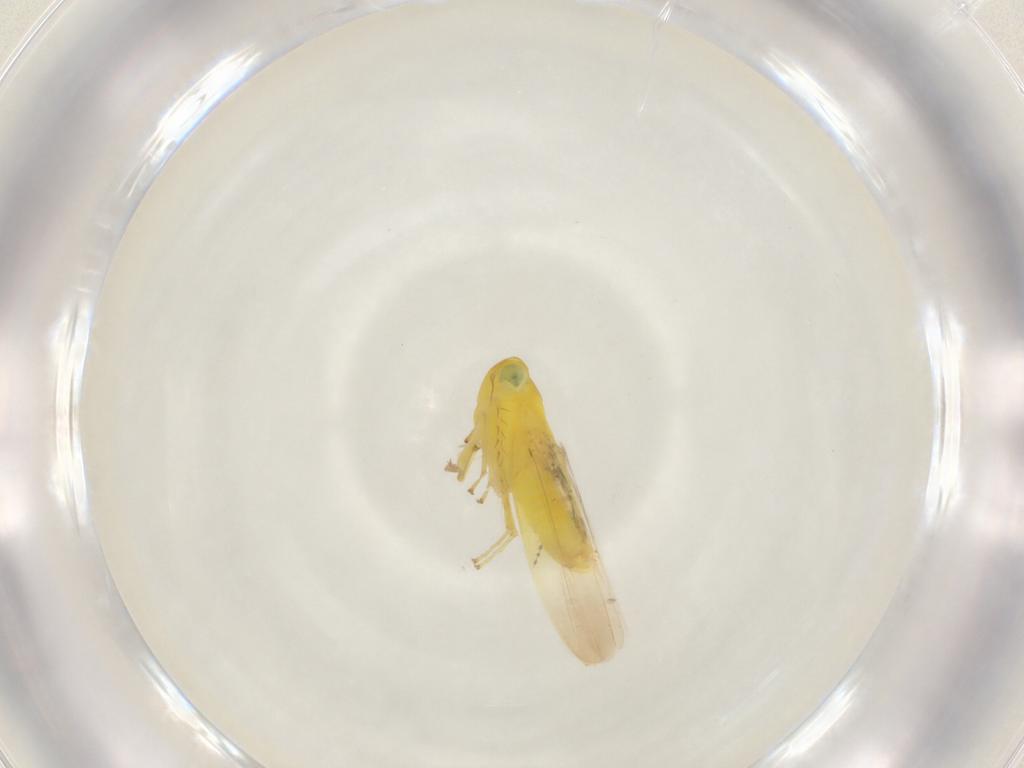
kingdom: Animalia
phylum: Arthropoda
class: Insecta
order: Hemiptera
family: Cicadellidae
